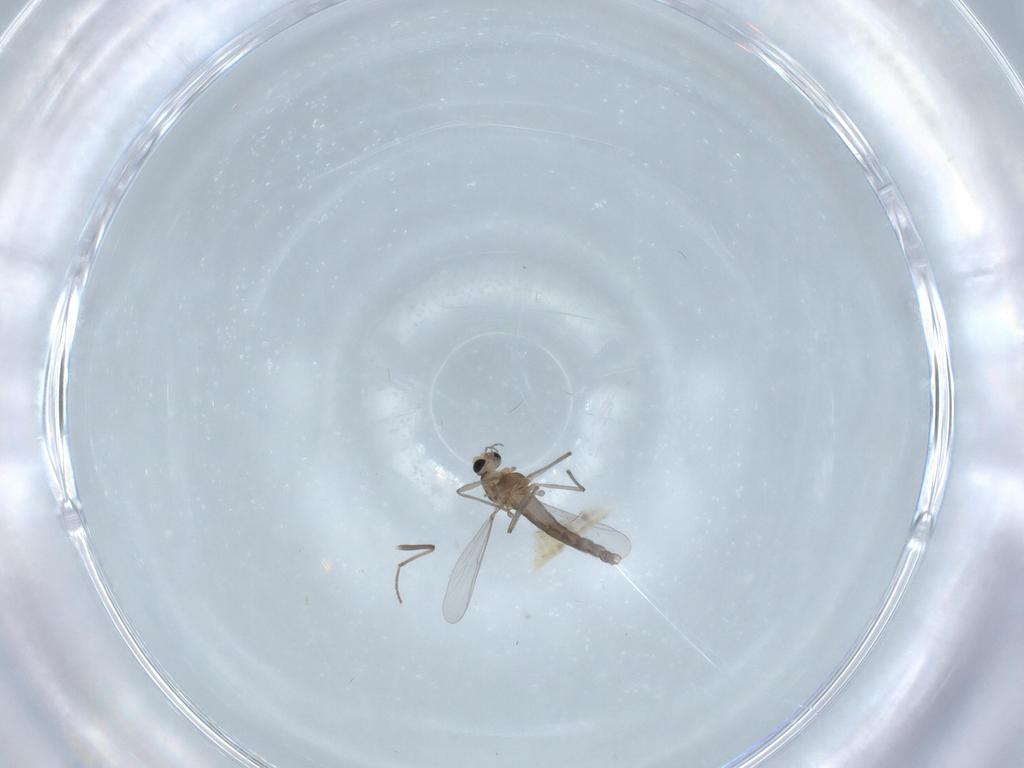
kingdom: Animalia
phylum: Arthropoda
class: Insecta
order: Diptera
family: Chironomidae
